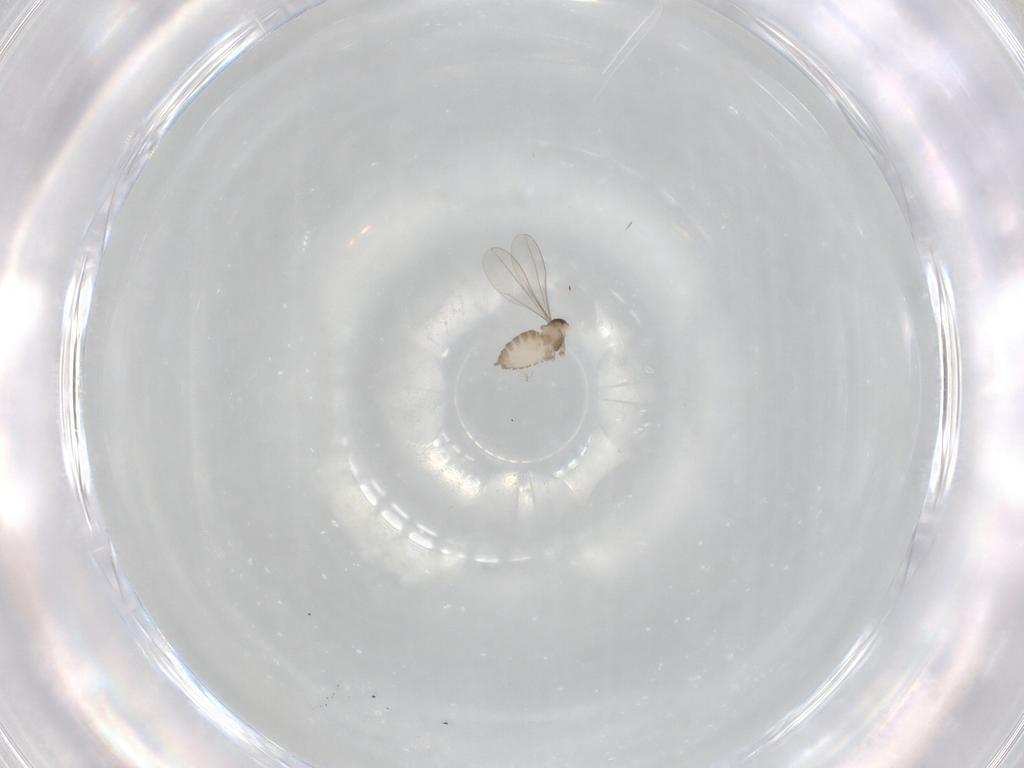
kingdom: Animalia
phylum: Arthropoda
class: Insecta
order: Diptera
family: Cecidomyiidae
